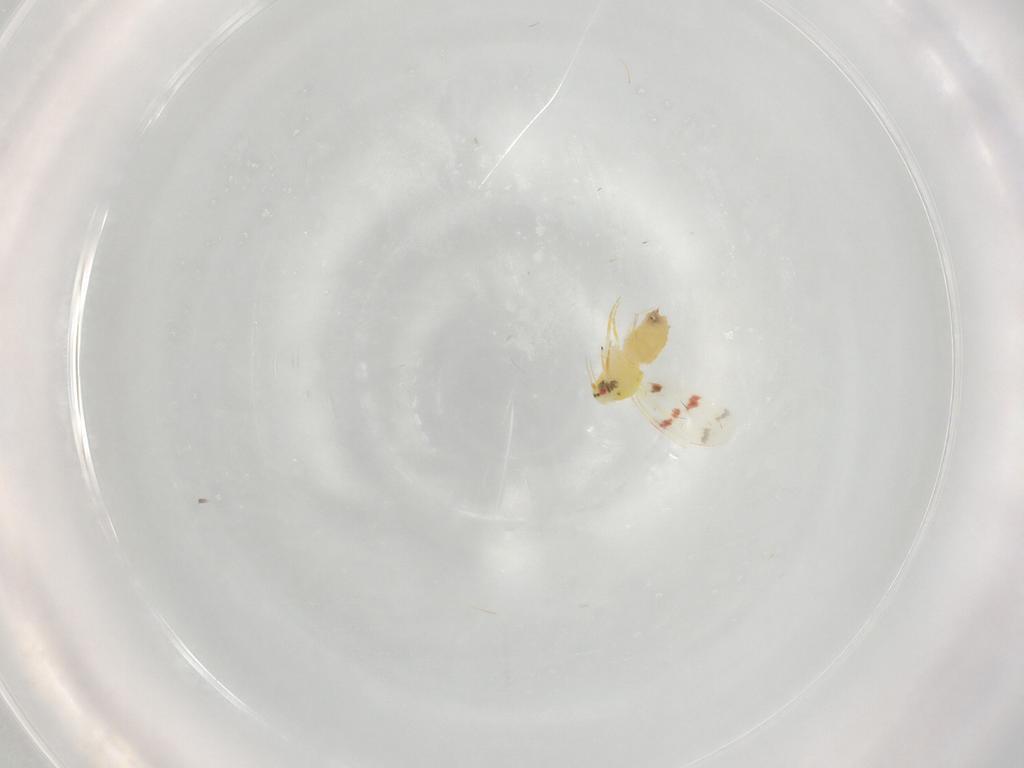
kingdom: Animalia
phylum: Arthropoda
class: Insecta
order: Hemiptera
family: Aleyrodidae
